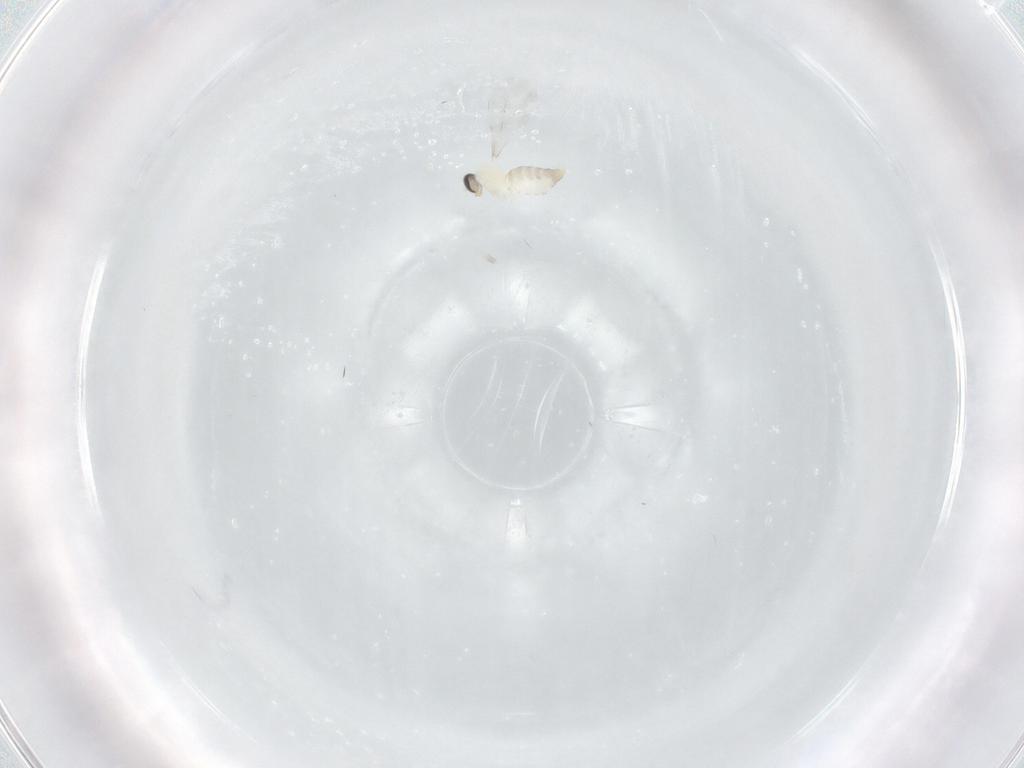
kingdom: Animalia
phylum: Arthropoda
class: Insecta
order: Diptera
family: Cecidomyiidae
